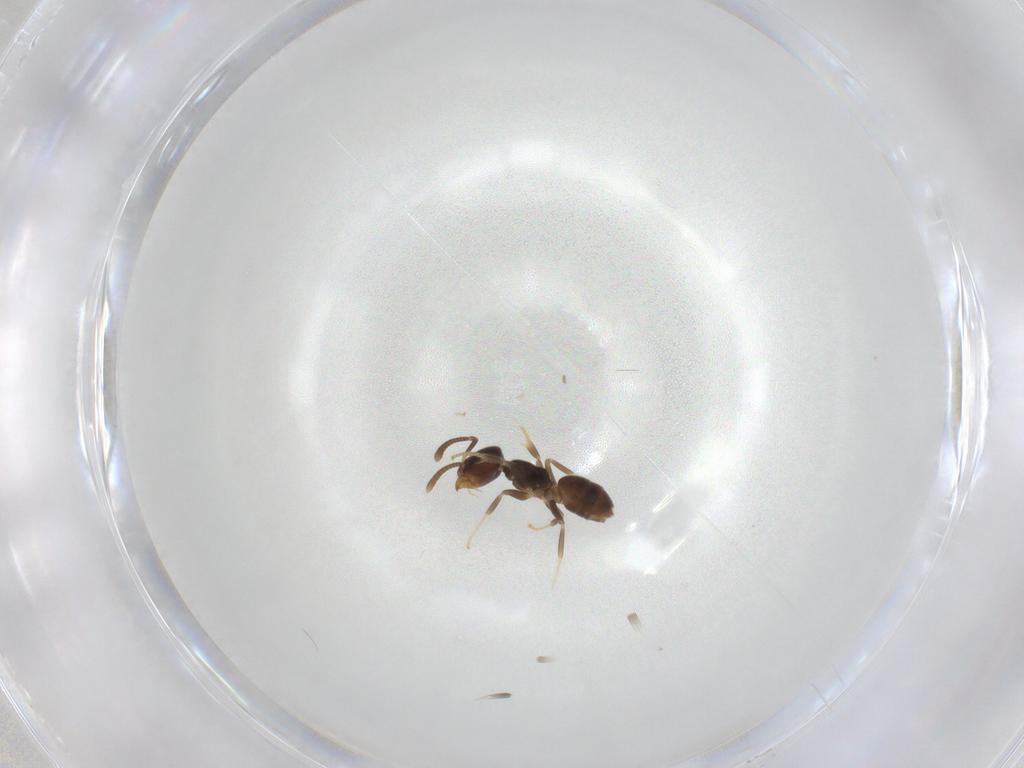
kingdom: Animalia
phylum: Arthropoda
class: Insecta
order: Hymenoptera
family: Formicidae
